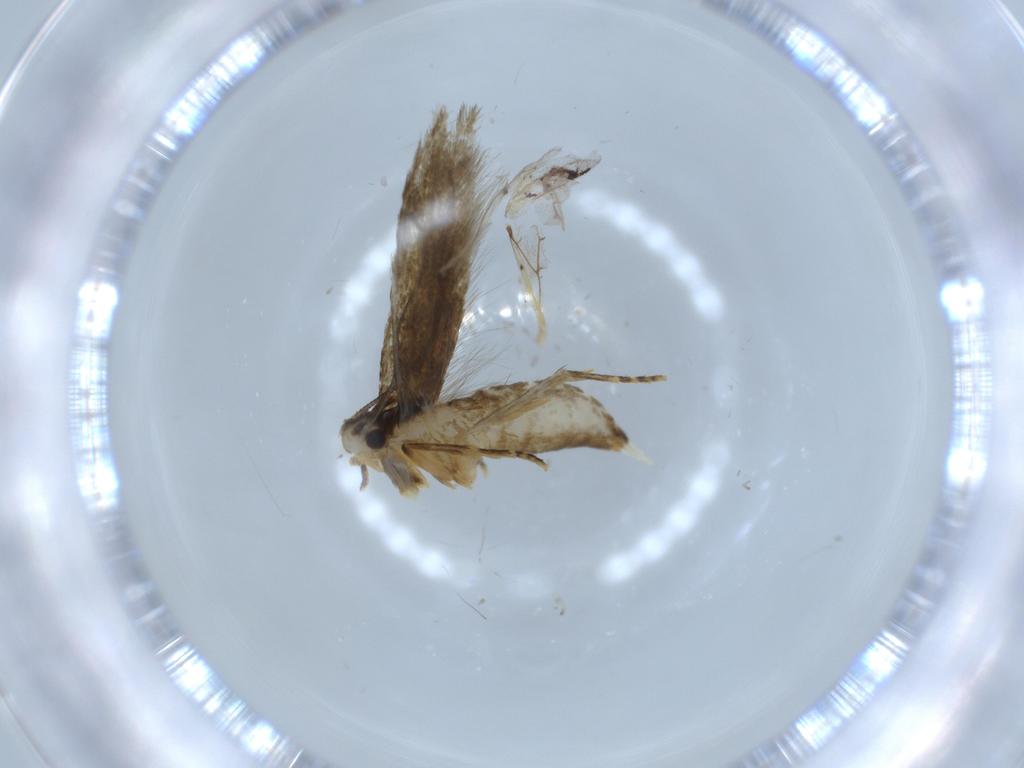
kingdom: Animalia
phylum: Arthropoda
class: Insecta
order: Lepidoptera
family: Tineidae
